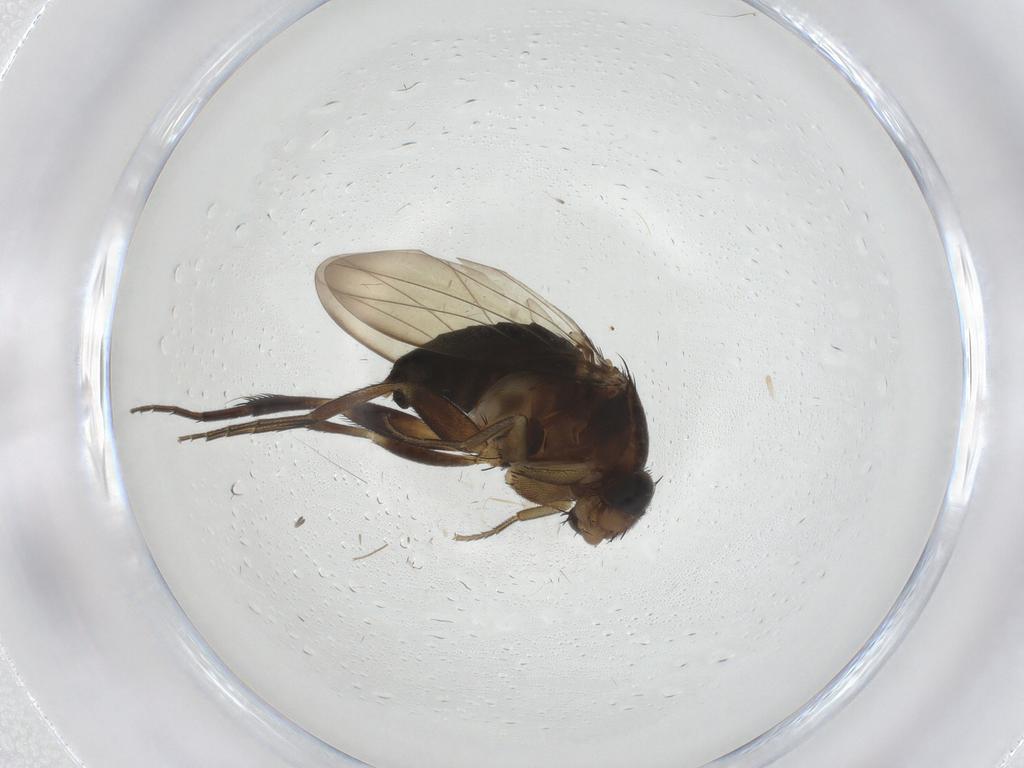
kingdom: Animalia
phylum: Arthropoda
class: Insecta
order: Diptera
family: Phoridae
